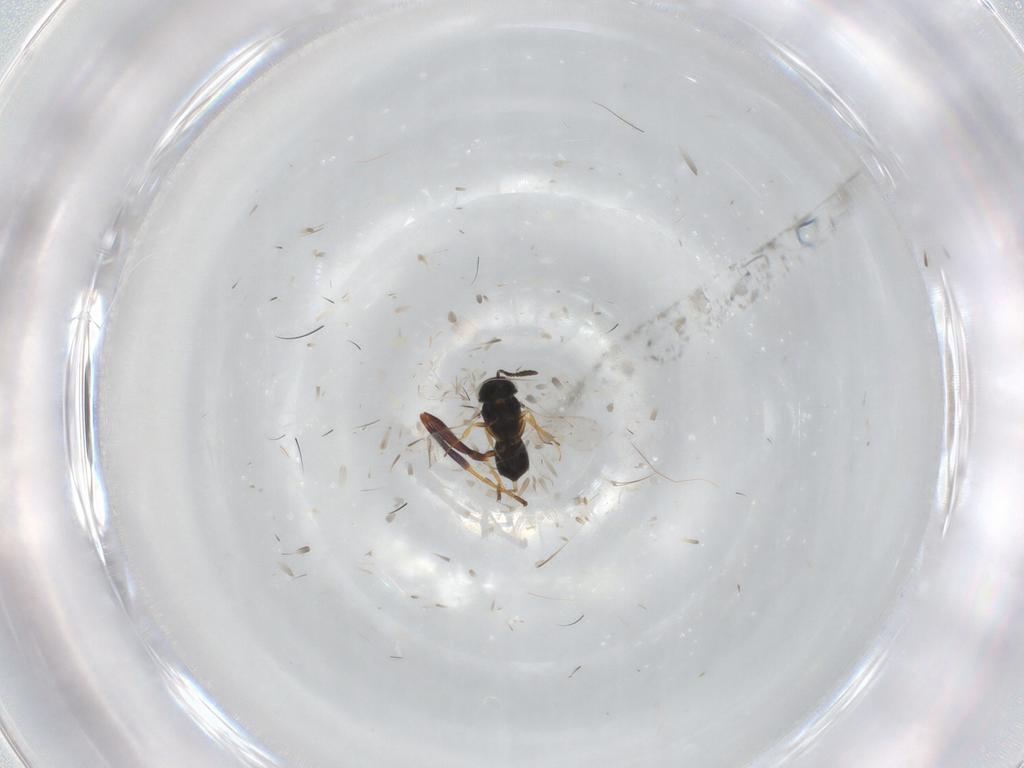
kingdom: Animalia
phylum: Arthropoda
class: Insecta
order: Hymenoptera
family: Scelionidae
